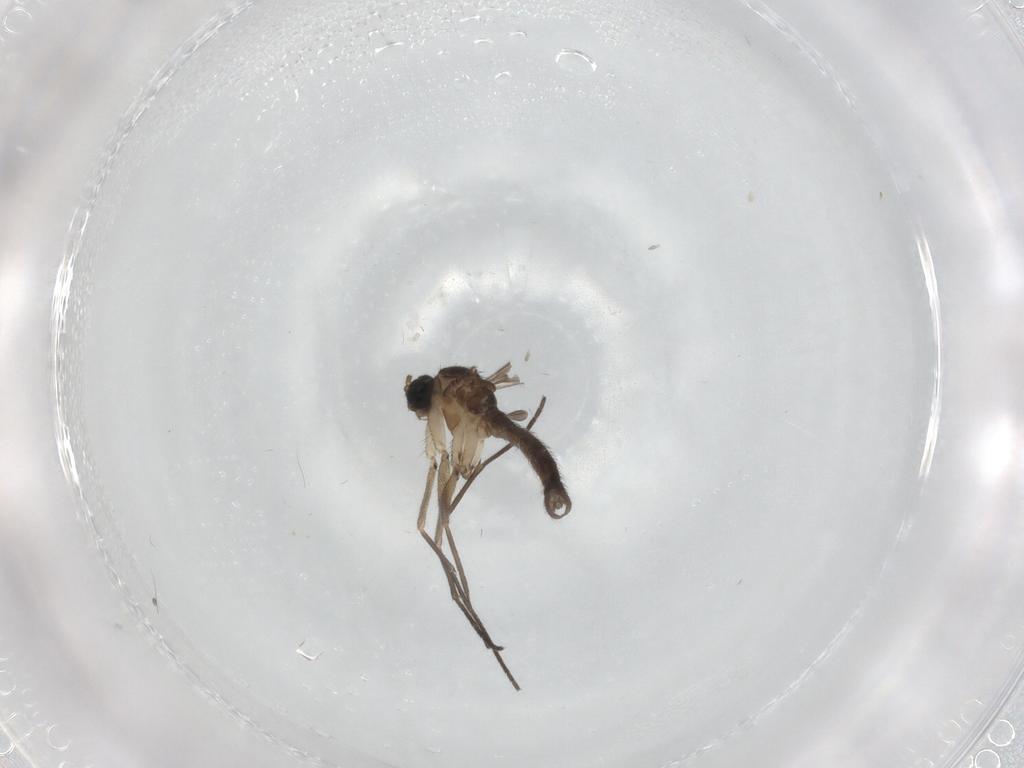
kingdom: Animalia
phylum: Arthropoda
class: Insecta
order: Diptera
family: Sciaridae
